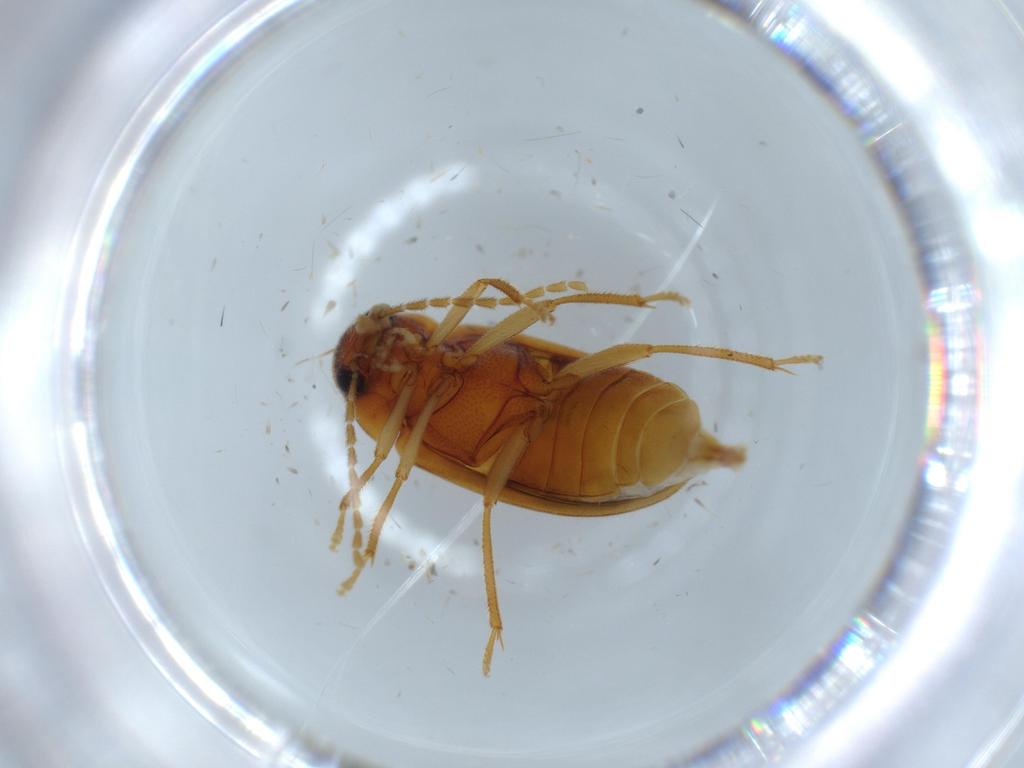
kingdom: Animalia
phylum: Arthropoda
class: Insecta
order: Coleoptera
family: Ptilodactylidae
